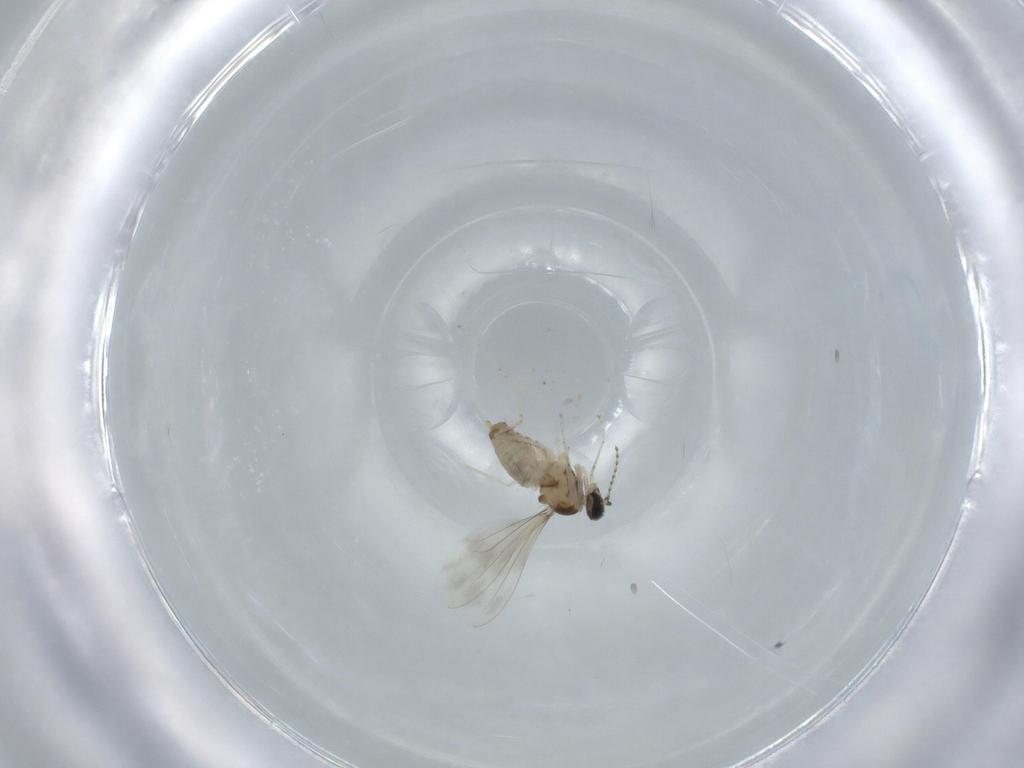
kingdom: Animalia
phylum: Arthropoda
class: Insecta
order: Diptera
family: Cecidomyiidae
